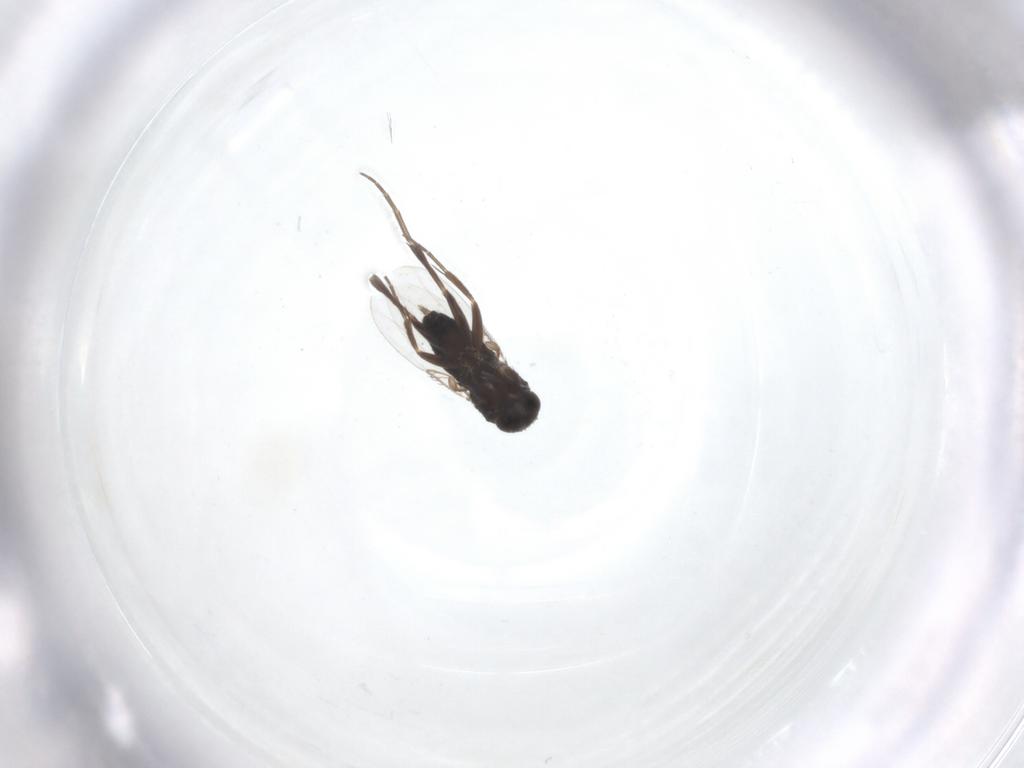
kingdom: Animalia
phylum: Arthropoda
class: Insecta
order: Diptera
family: Phoridae
